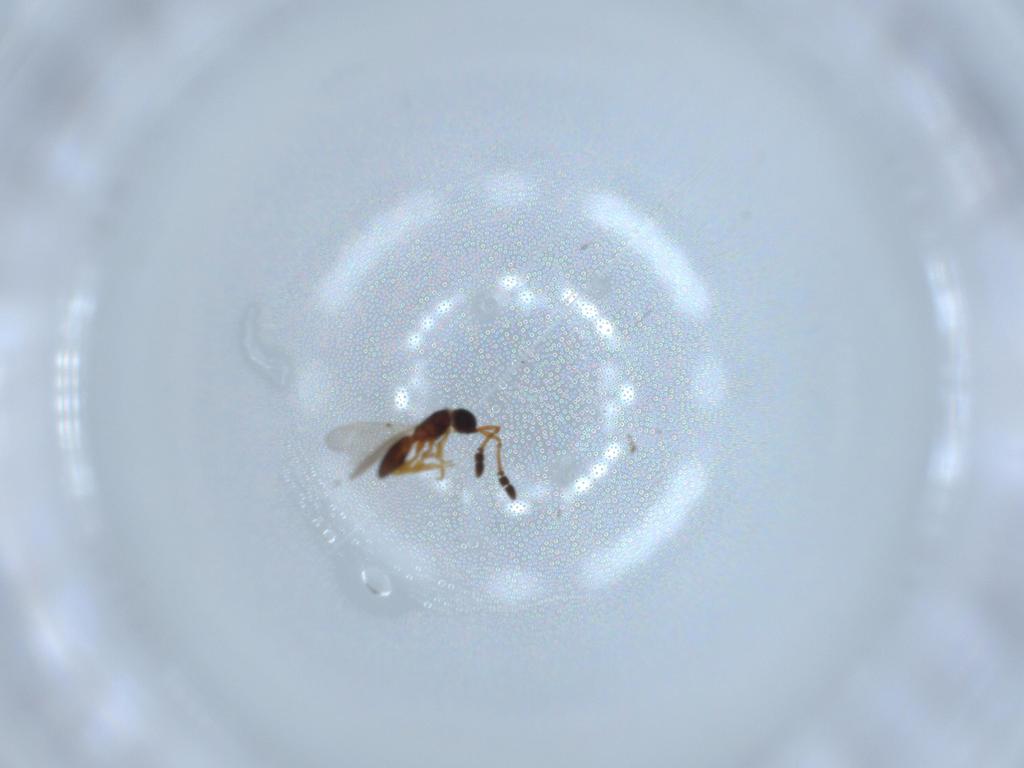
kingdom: Animalia
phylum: Arthropoda
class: Insecta
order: Hymenoptera
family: Diapriidae
